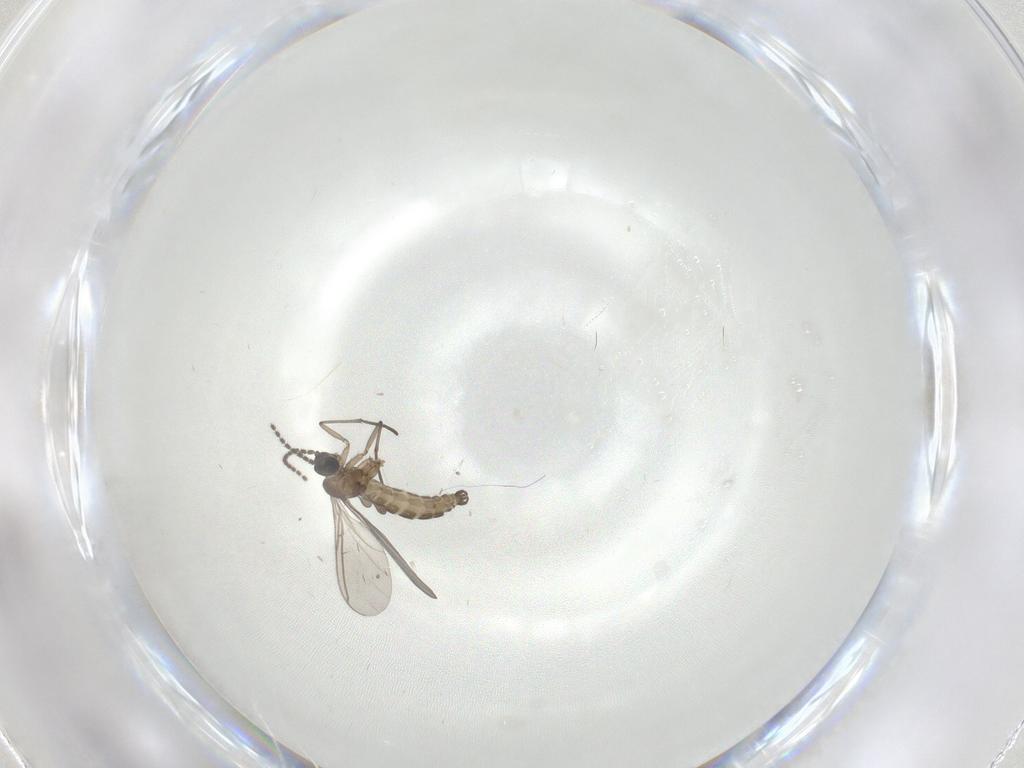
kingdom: Animalia
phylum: Arthropoda
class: Insecta
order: Diptera
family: Sciaridae
